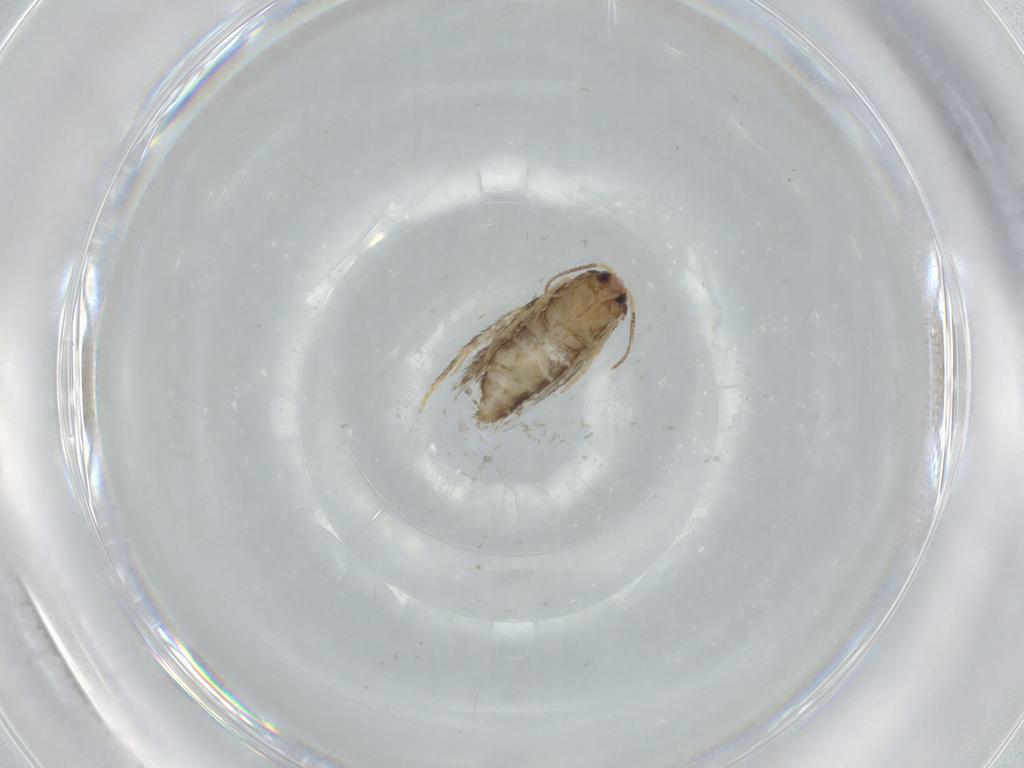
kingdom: Animalia
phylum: Arthropoda
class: Insecta
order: Lepidoptera
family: Nepticulidae
